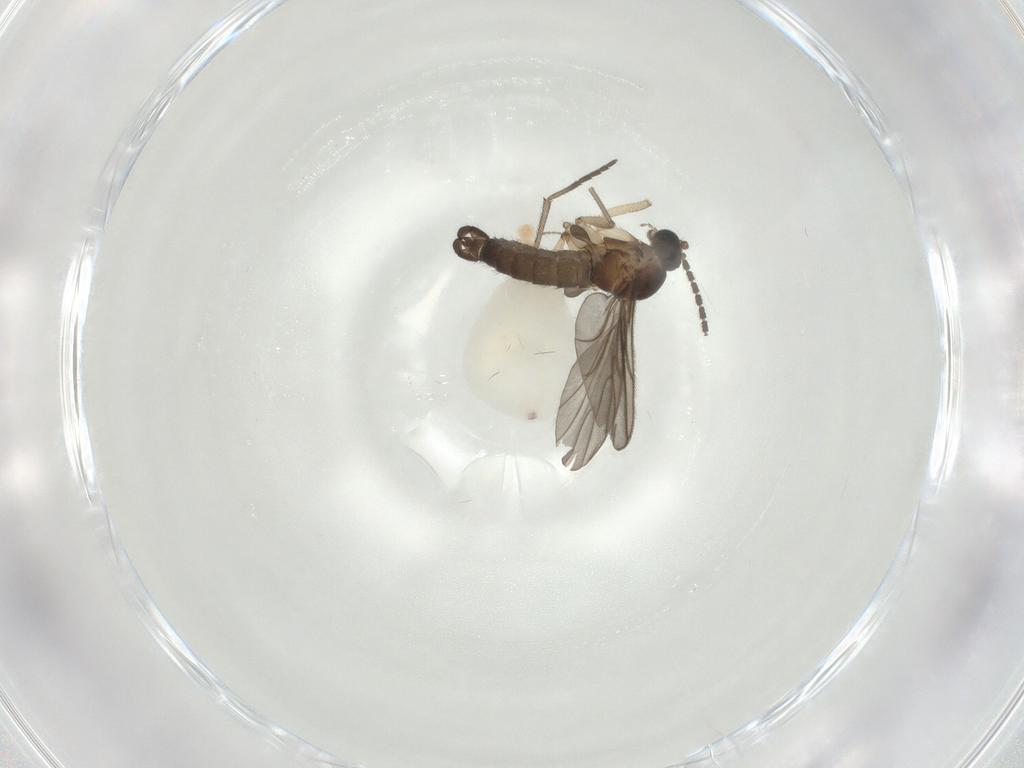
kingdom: Animalia
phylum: Arthropoda
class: Insecta
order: Diptera
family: Sciaridae
